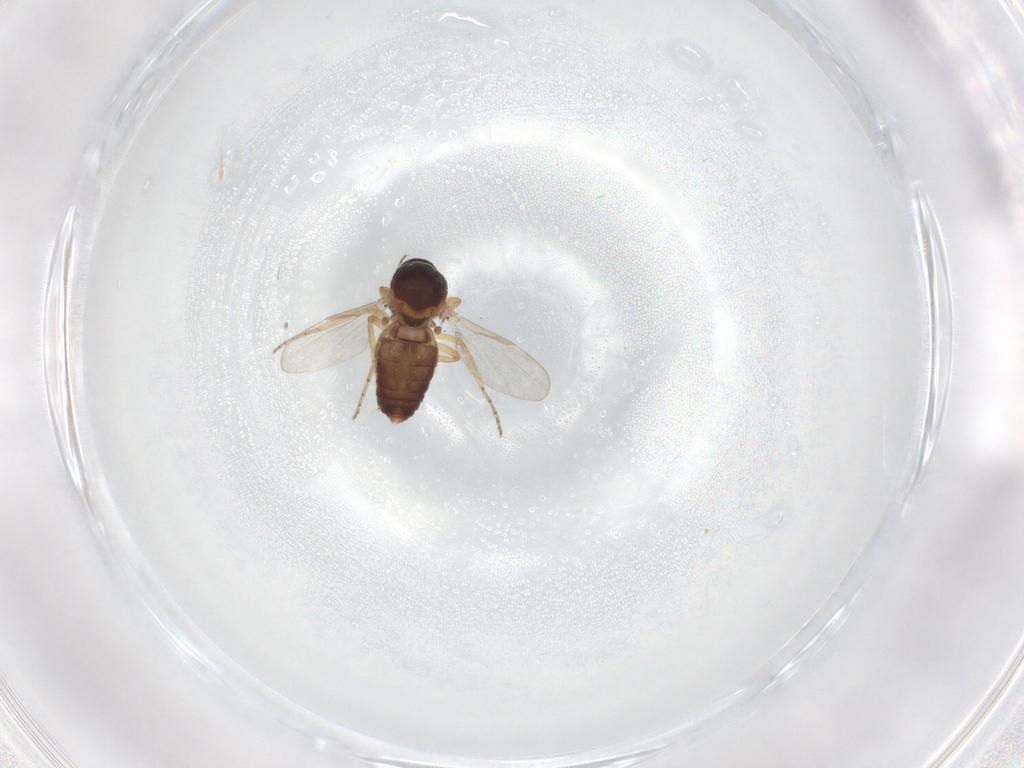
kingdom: Animalia
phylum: Arthropoda
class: Insecta
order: Diptera
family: Ceratopogonidae
